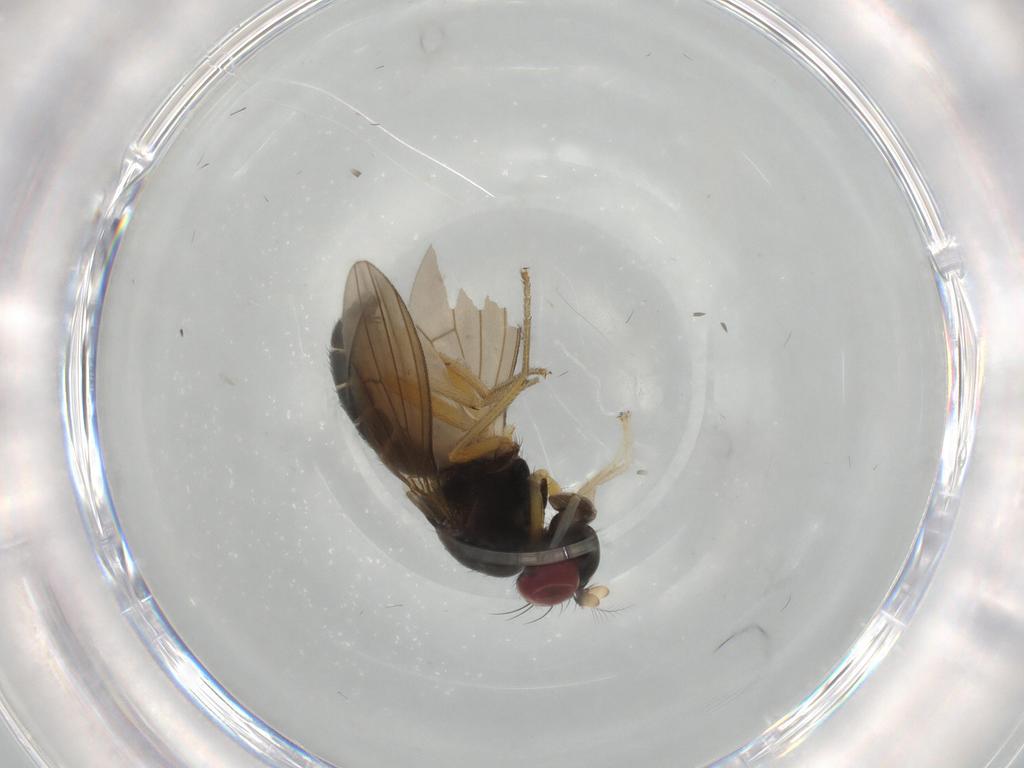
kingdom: Animalia
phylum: Arthropoda
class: Insecta
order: Diptera
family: Lauxaniidae
